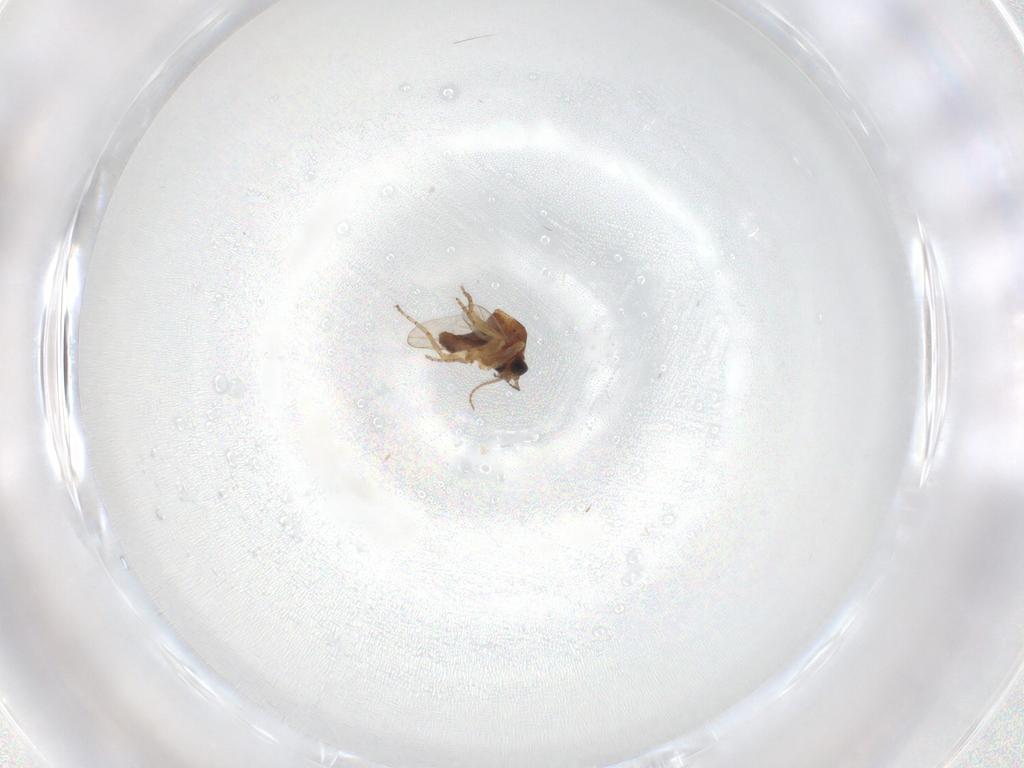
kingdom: Animalia
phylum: Arthropoda
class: Insecta
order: Diptera
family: Ceratopogonidae
